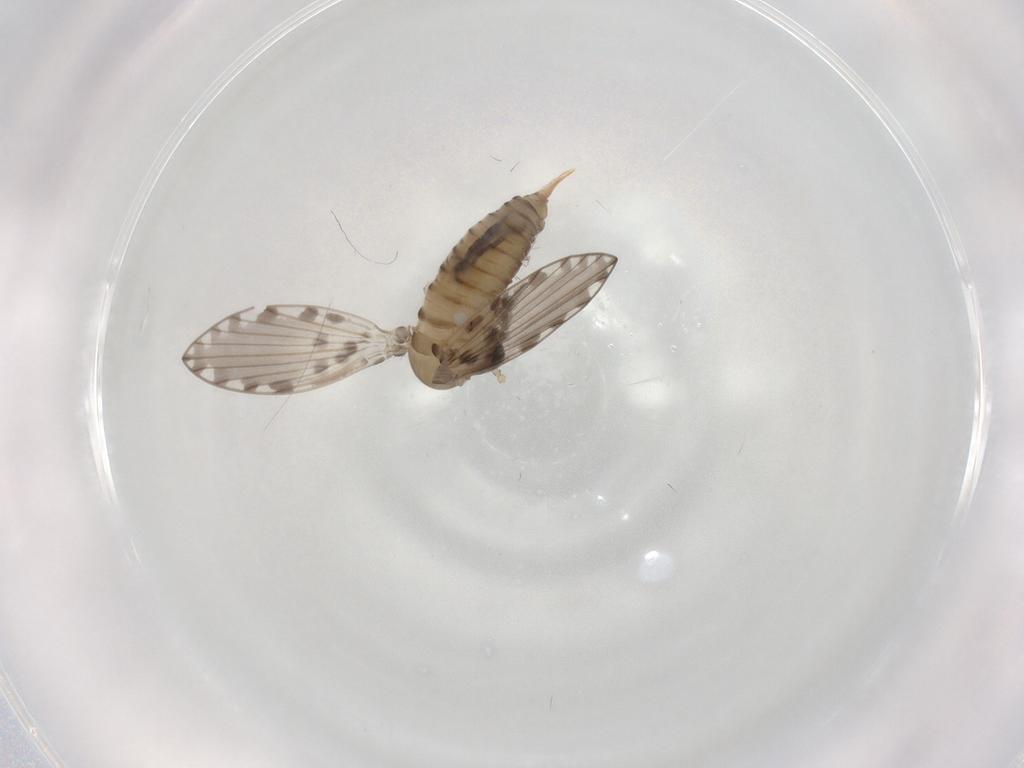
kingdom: Animalia
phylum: Arthropoda
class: Insecta
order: Diptera
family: Psychodidae
